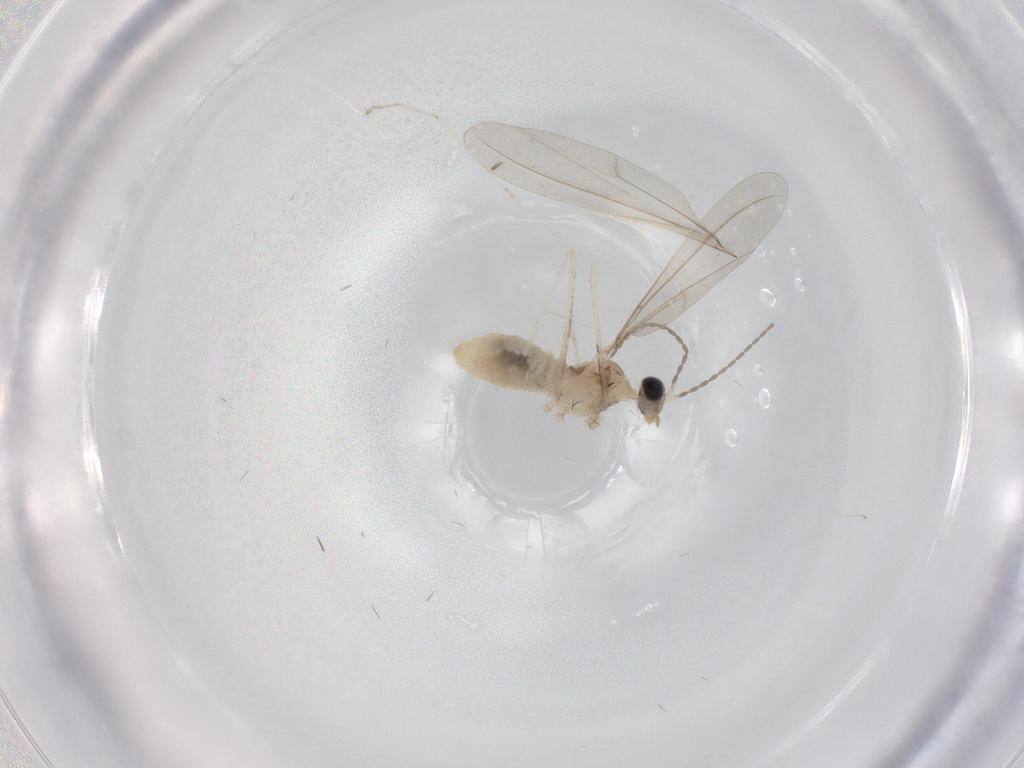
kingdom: Animalia
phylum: Arthropoda
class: Insecta
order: Diptera
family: Cecidomyiidae
